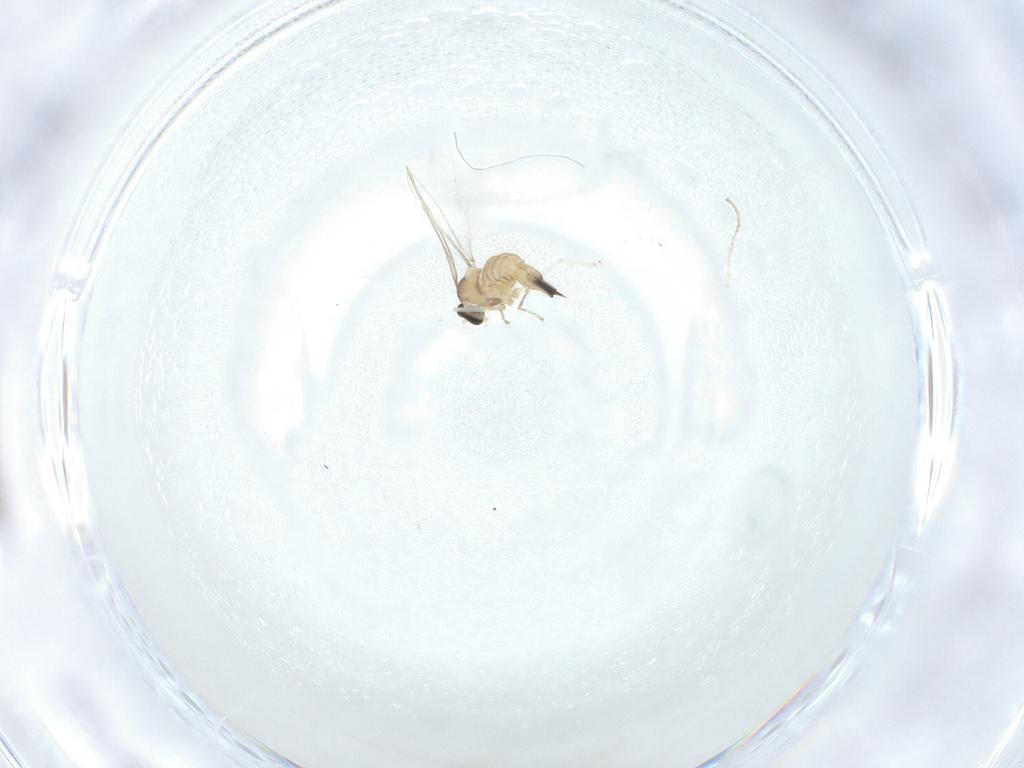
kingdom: Animalia
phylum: Arthropoda
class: Insecta
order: Diptera
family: Cecidomyiidae
